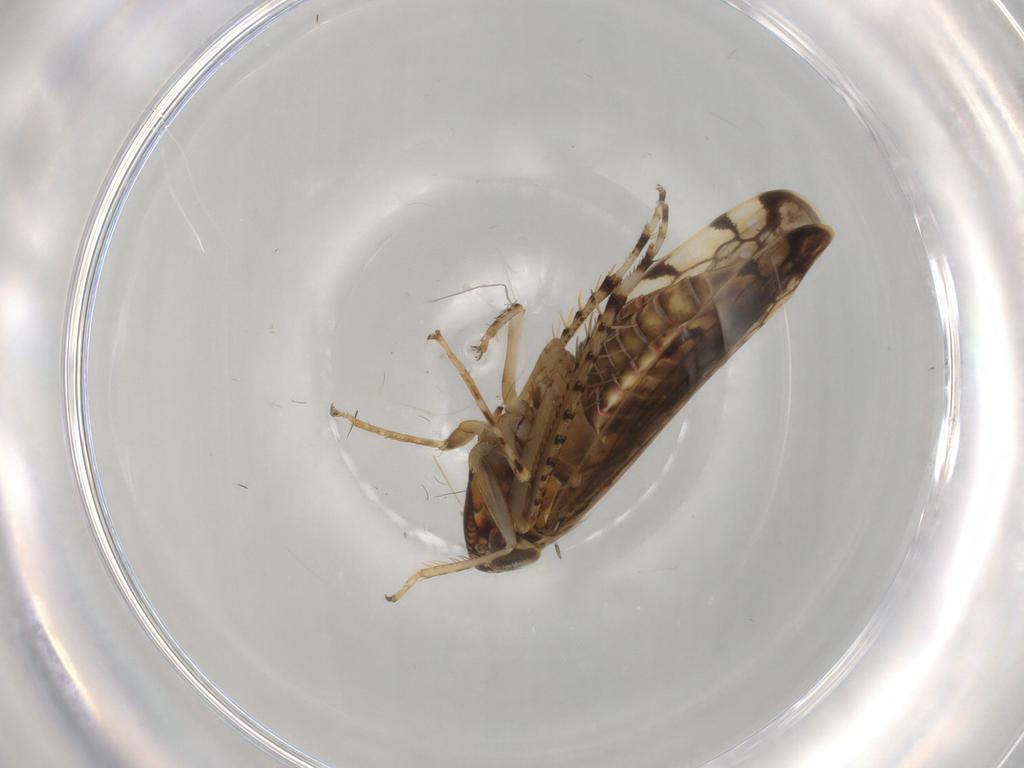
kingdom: Animalia
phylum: Arthropoda
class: Insecta
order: Hemiptera
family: Cicadellidae
